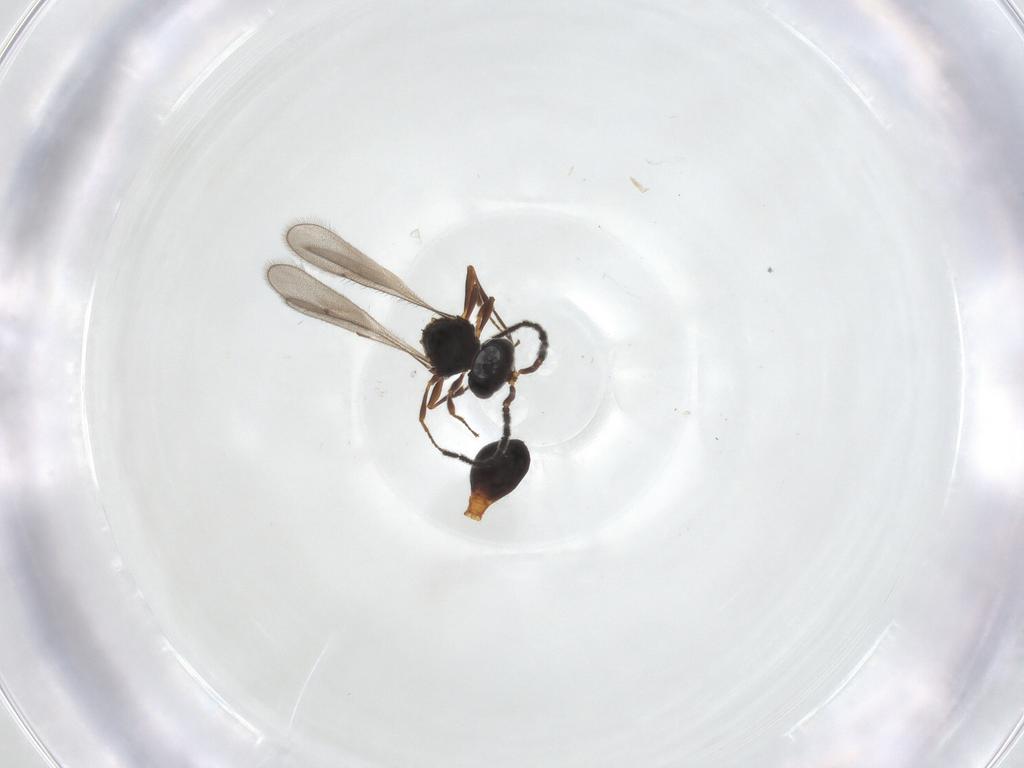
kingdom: Animalia
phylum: Arthropoda
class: Insecta
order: Hymenoptera
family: Scelionidae
